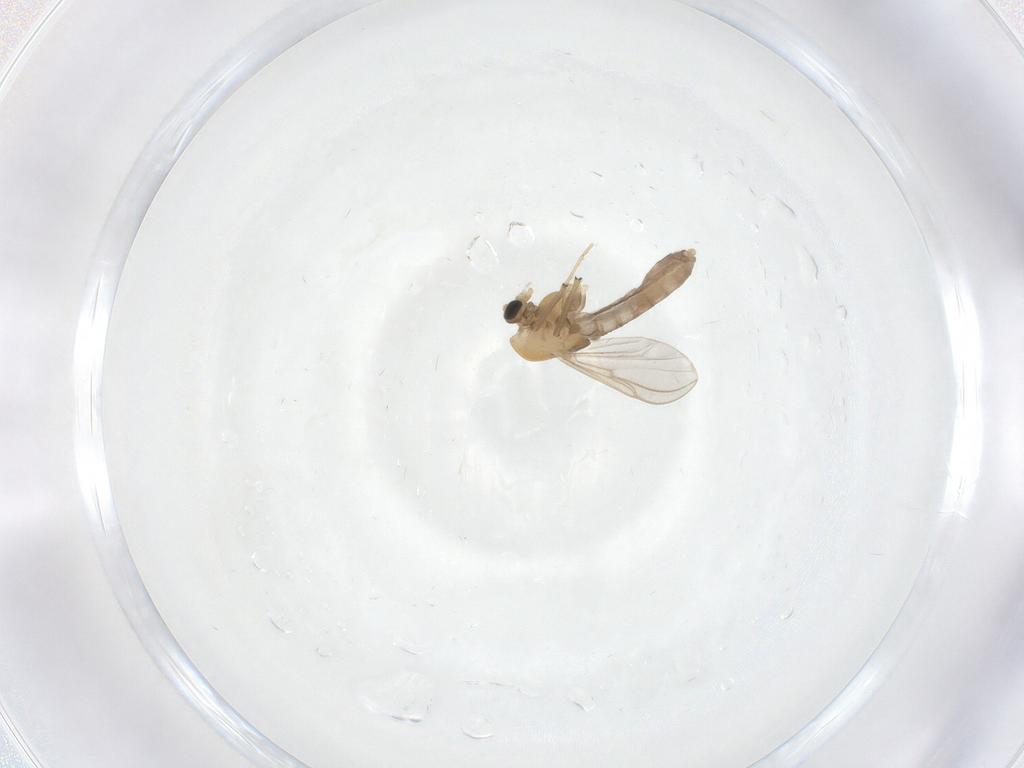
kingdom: Animalia
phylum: Arthropoda
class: Insecta
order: Diptera
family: Chironomidae
